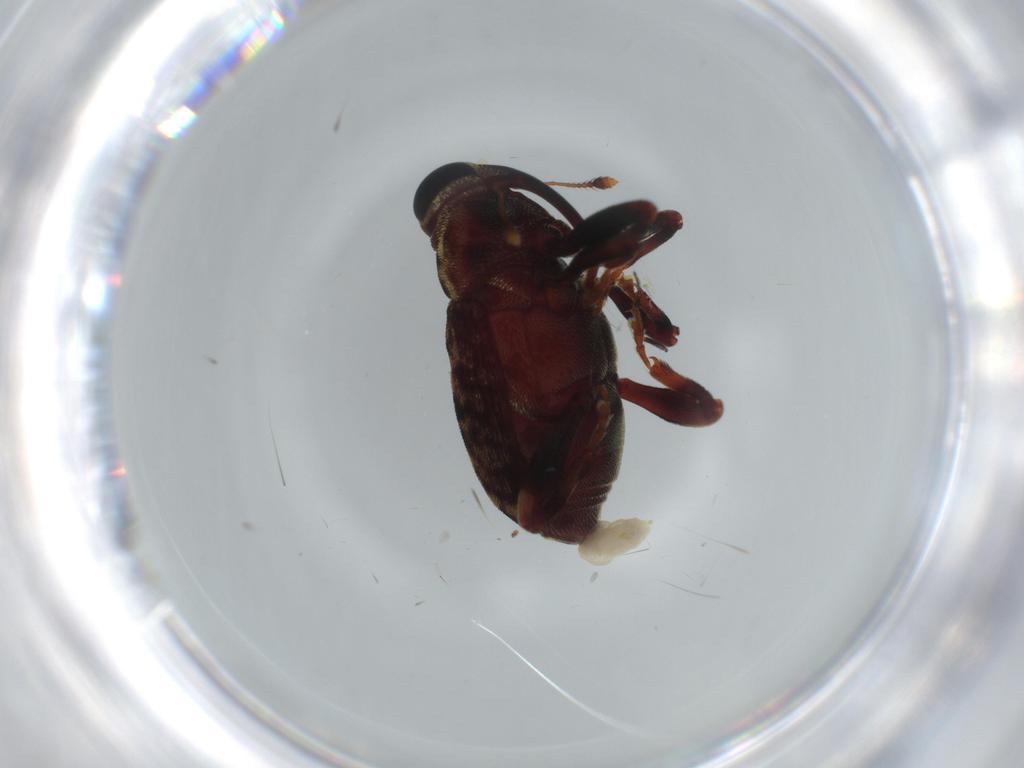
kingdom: Animalia
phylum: Arthropoda
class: Insecta
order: Coleoptera
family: Curculionidae
